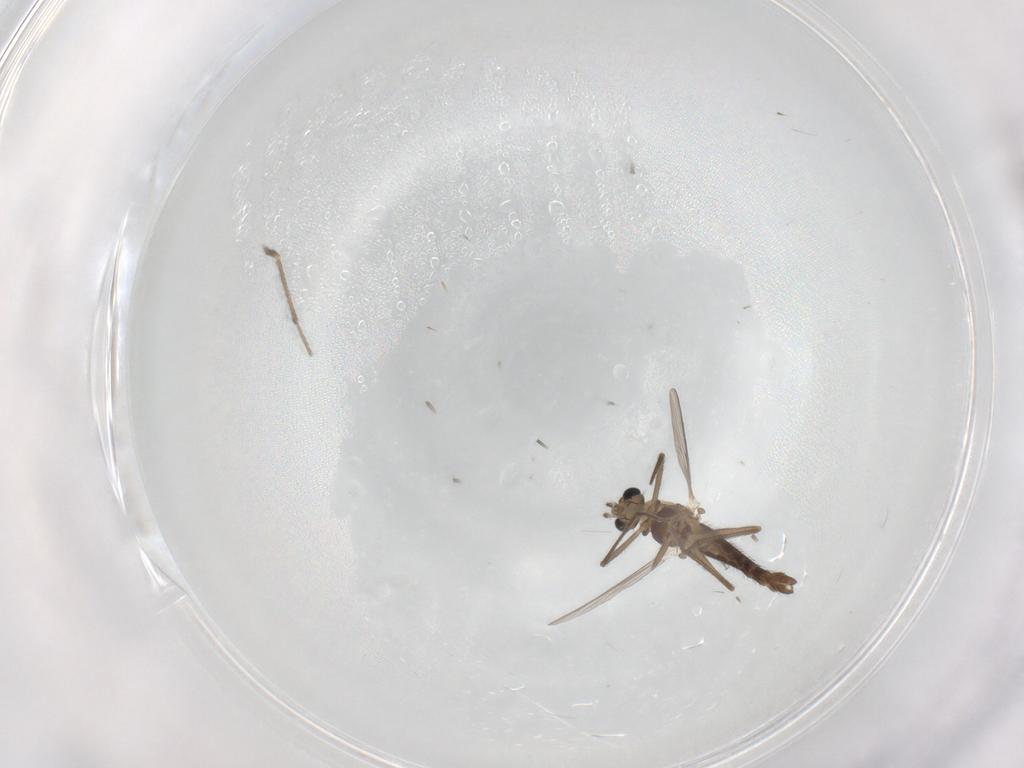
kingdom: Animalia
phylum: Arthropoda
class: Insecta
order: Diptera
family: Chironomidae
